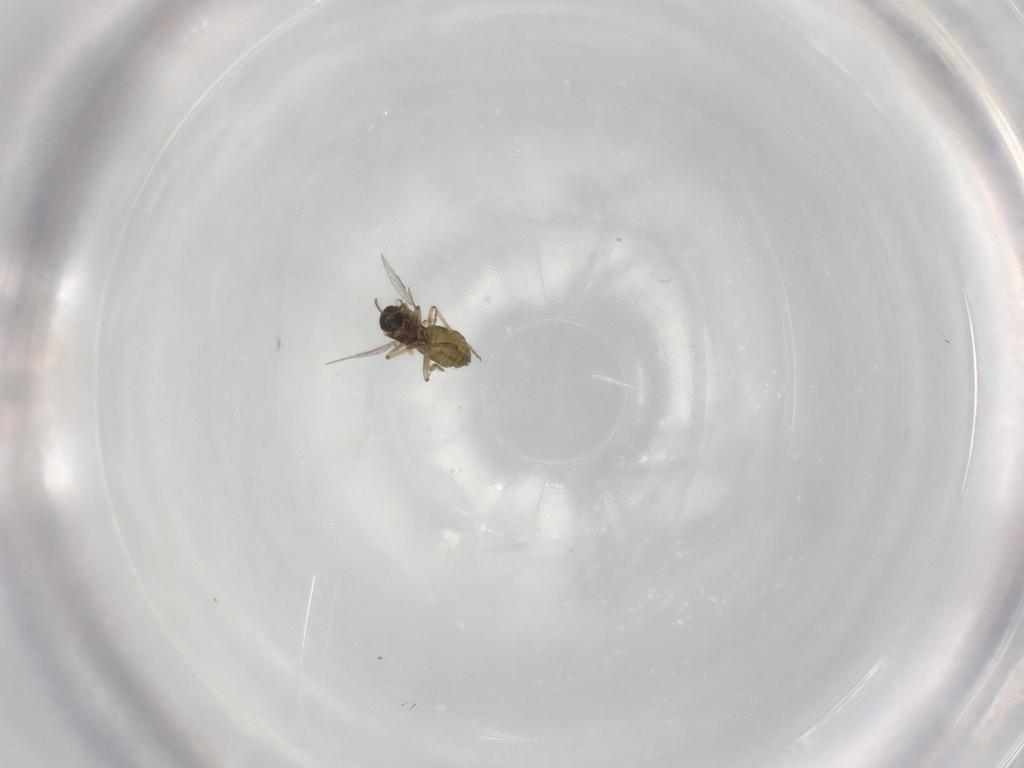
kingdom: Animalia
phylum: Arthropoda
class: Insecta
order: Diptera
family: Ceratopogonidae
